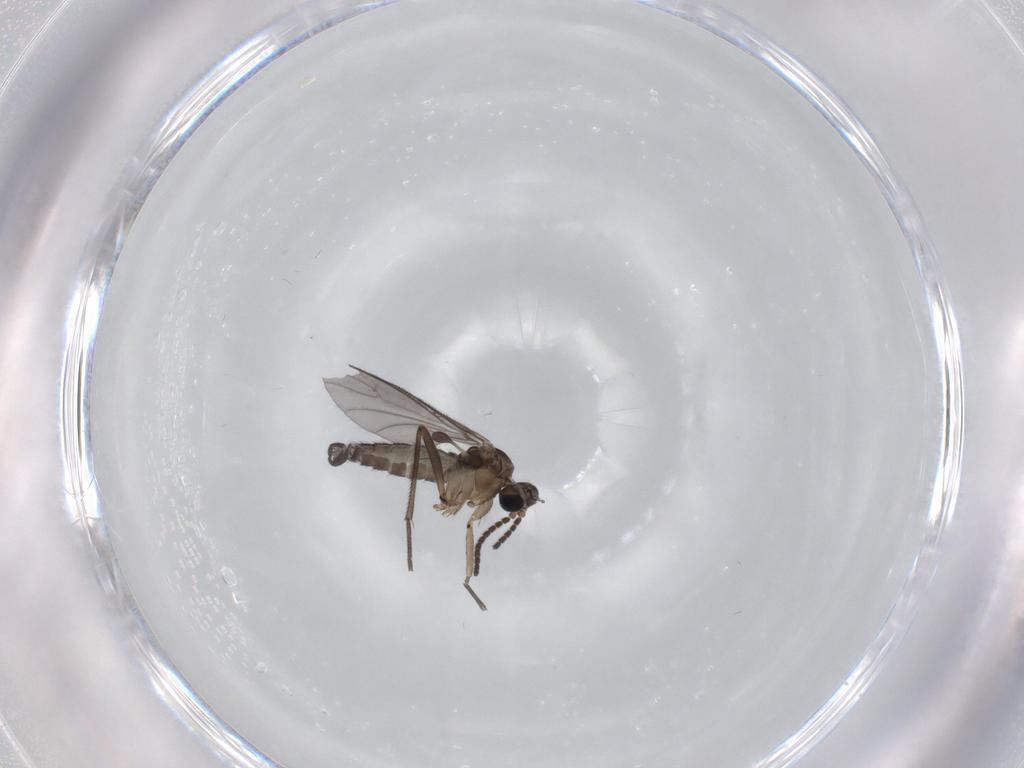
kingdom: Animalia
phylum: Arthropoda
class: Insecta
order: Diptera
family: Sciaridae
